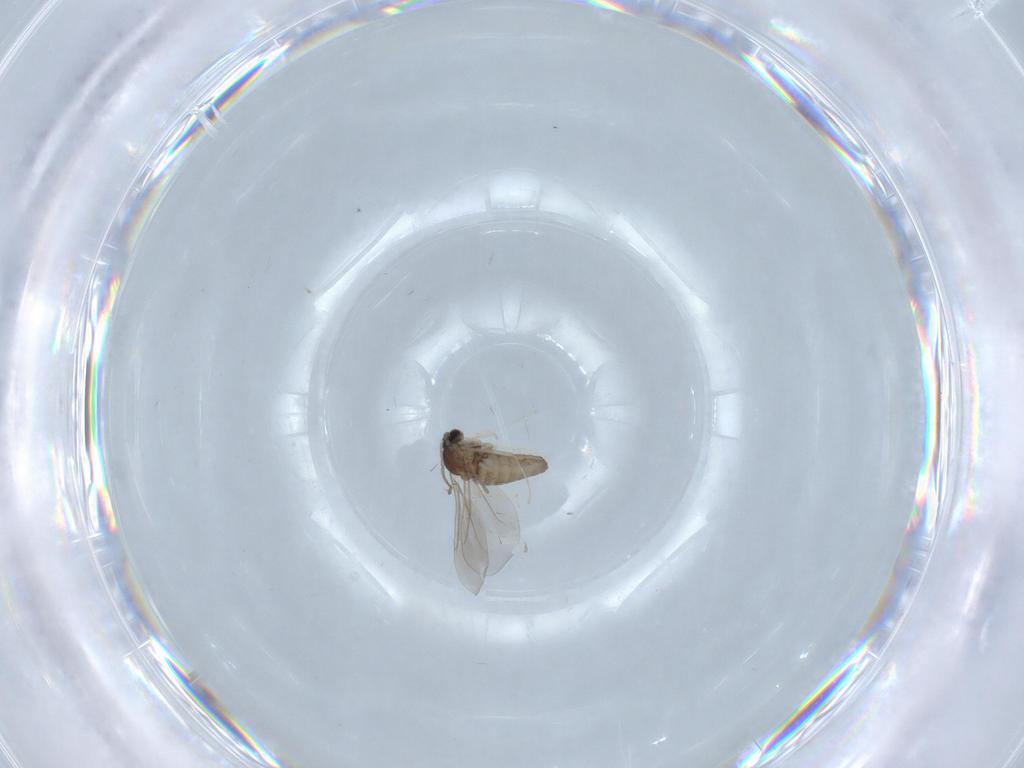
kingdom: Animalia
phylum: Arthropoda
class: Insecta
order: Diptera
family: Cecidomyiidae
